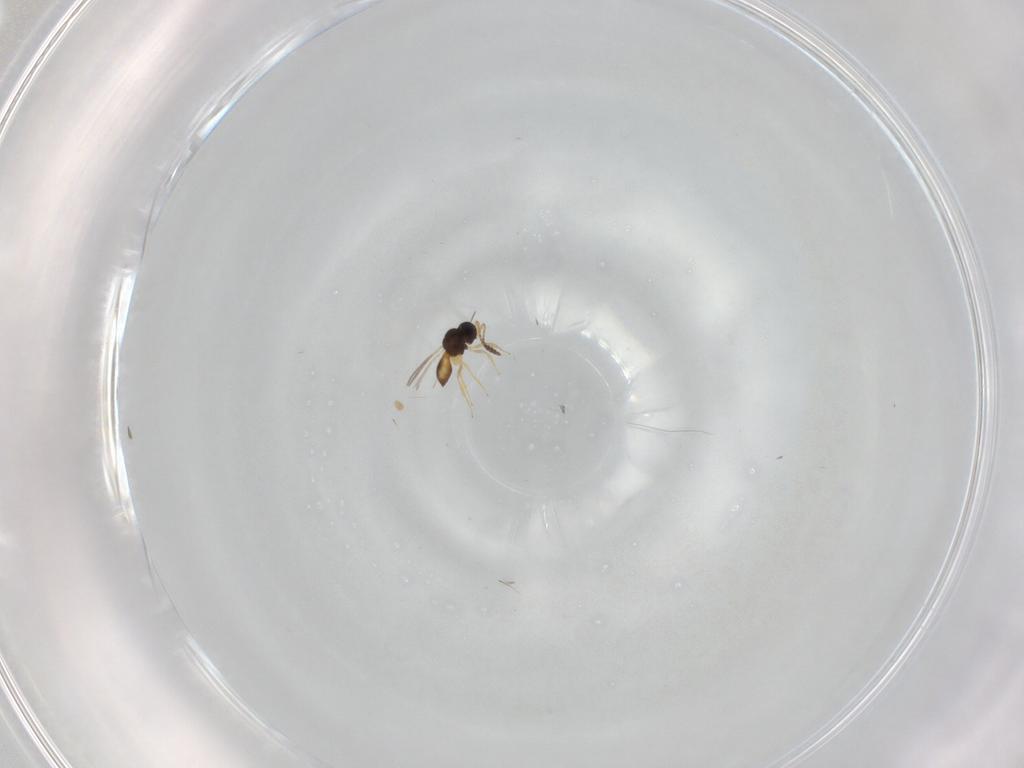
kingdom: Animalia
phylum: Arthropoda
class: Insecta
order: Hymenoptera
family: Scelionidae
